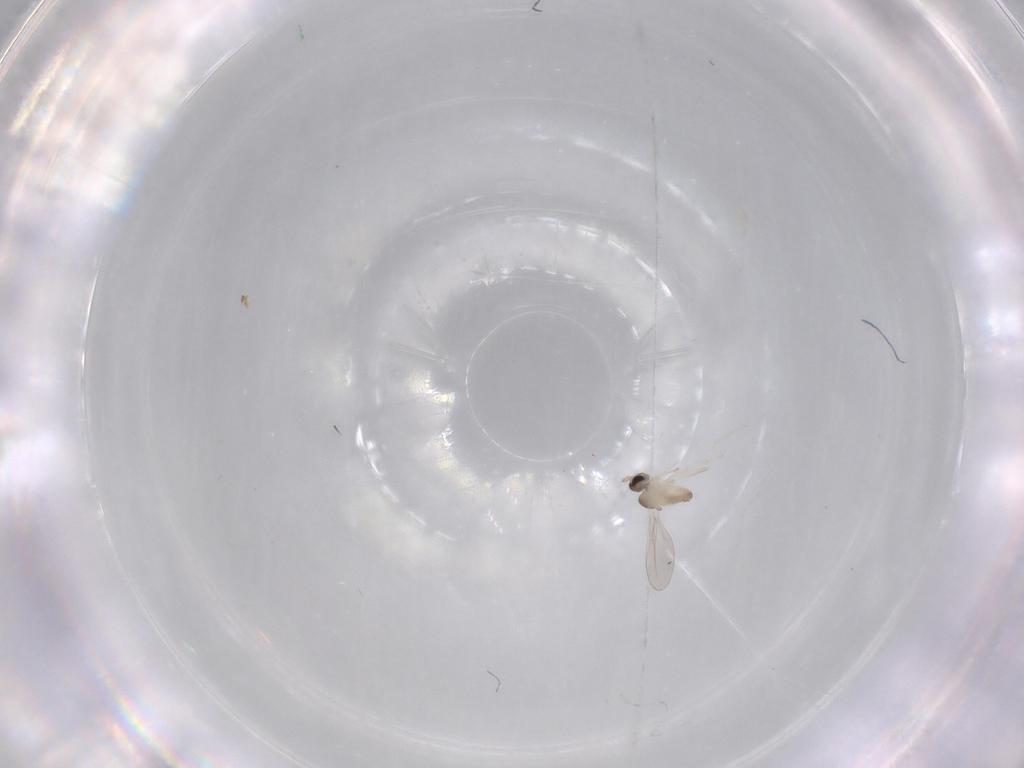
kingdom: Animalia
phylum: Arthropoda
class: Insecta
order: Diptera
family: Cecidomyiidae
